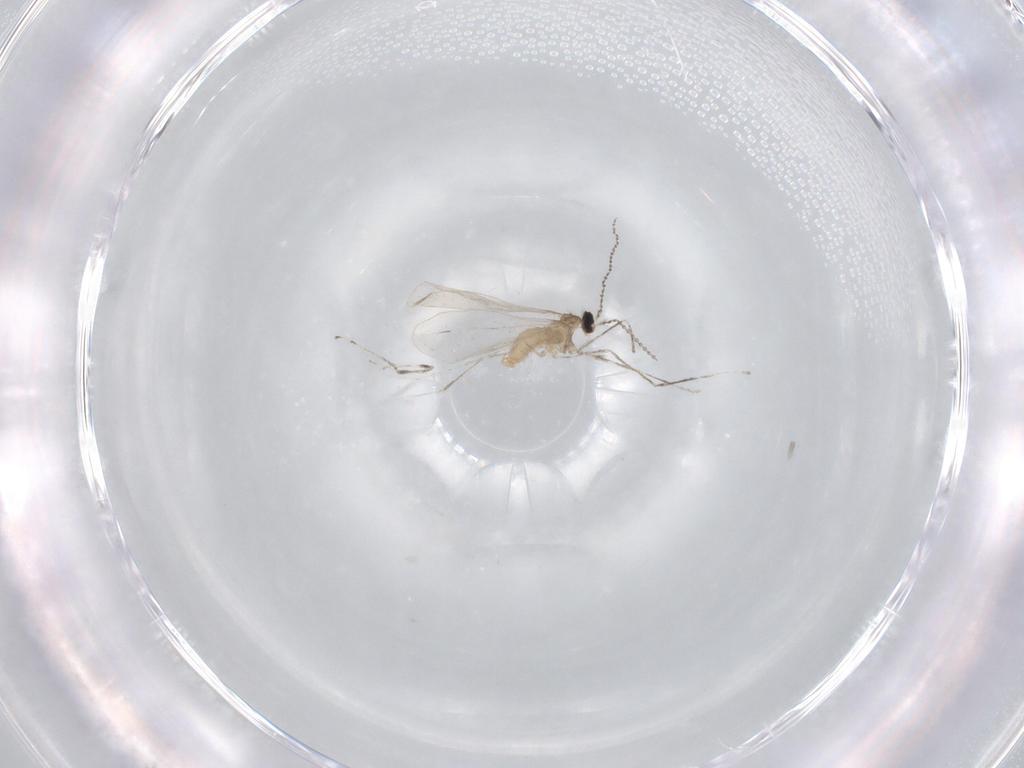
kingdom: Animalia
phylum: Arthropoda
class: Insecta
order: Diptera
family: Cecidomyiidae
